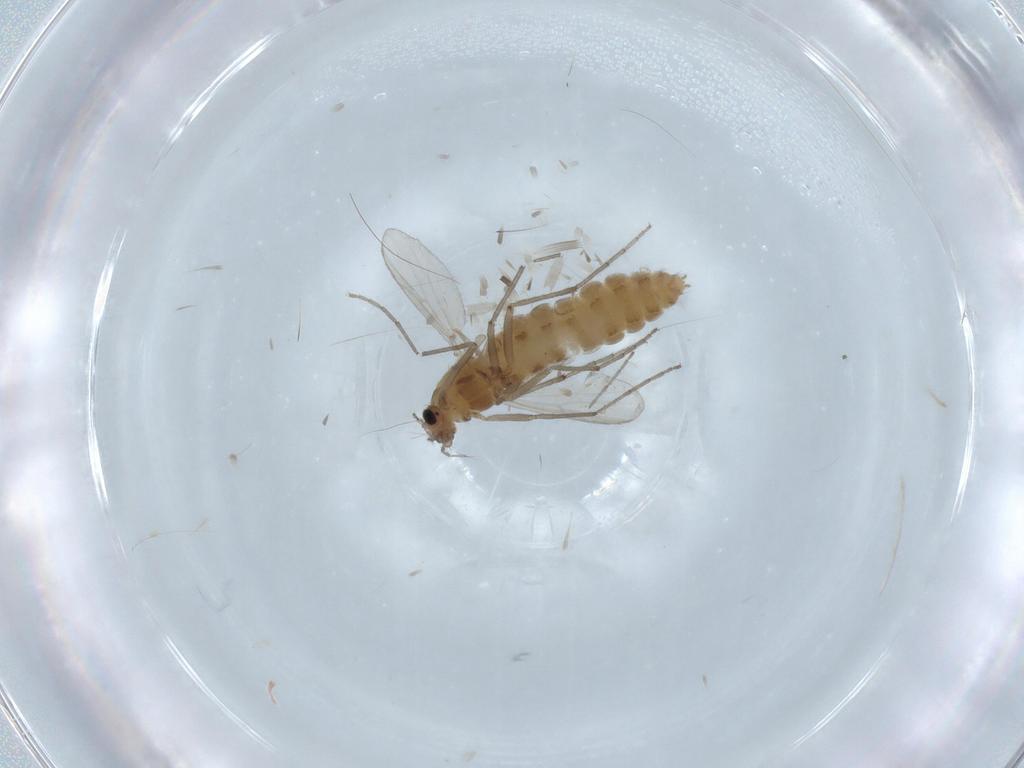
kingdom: Animalia
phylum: Arthropoda
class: Insecta
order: Diptera
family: Chironomidae
